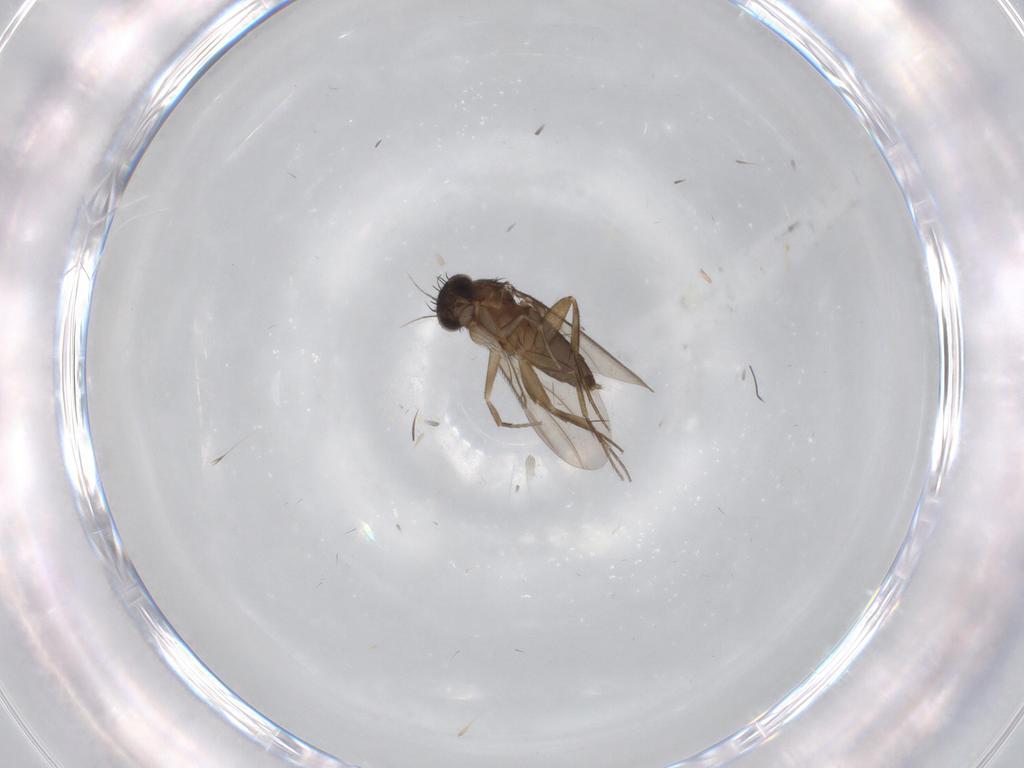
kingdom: Animalia
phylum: Arthropoda
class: Insecta
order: Diptera
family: Phoridae
